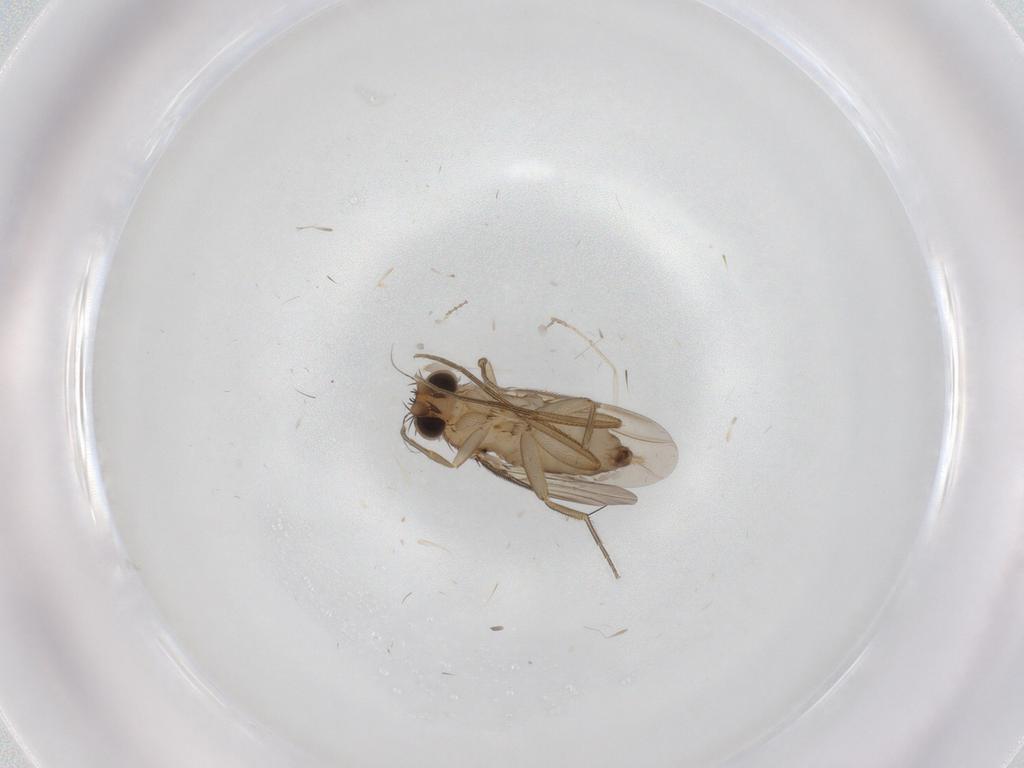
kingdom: Animalia
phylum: Arthropoda
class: Insecta
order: Diptera
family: Phoridae
